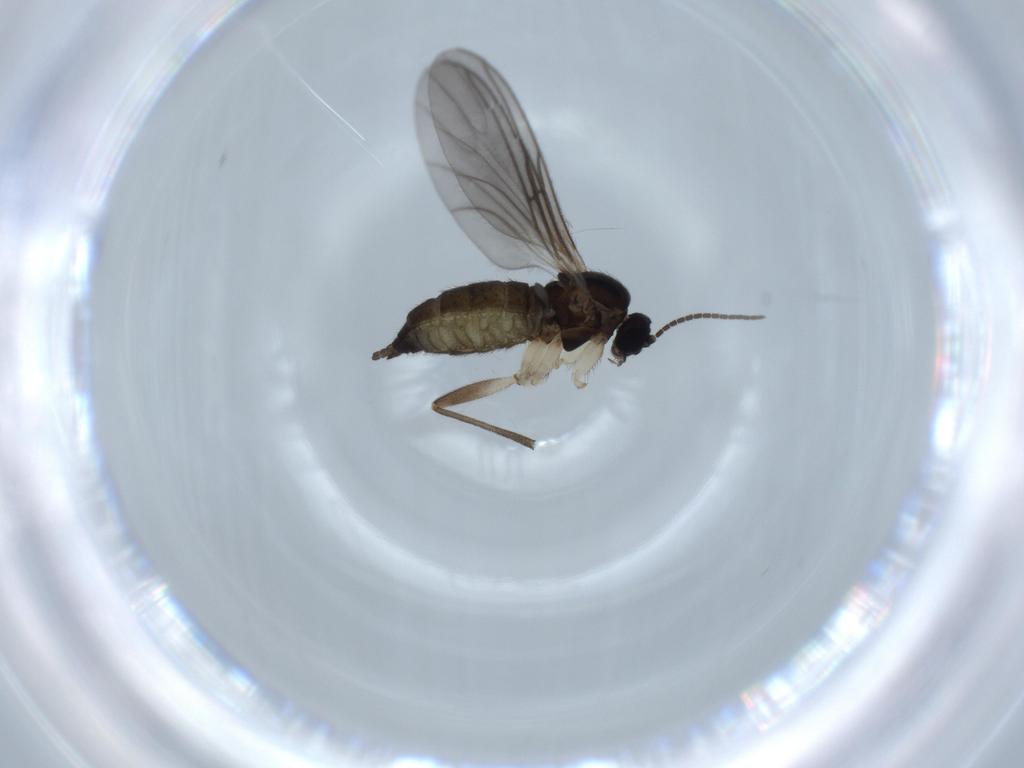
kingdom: Animalia
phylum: Arthropoda
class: Insecta
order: Diptera
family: Sciaridae
